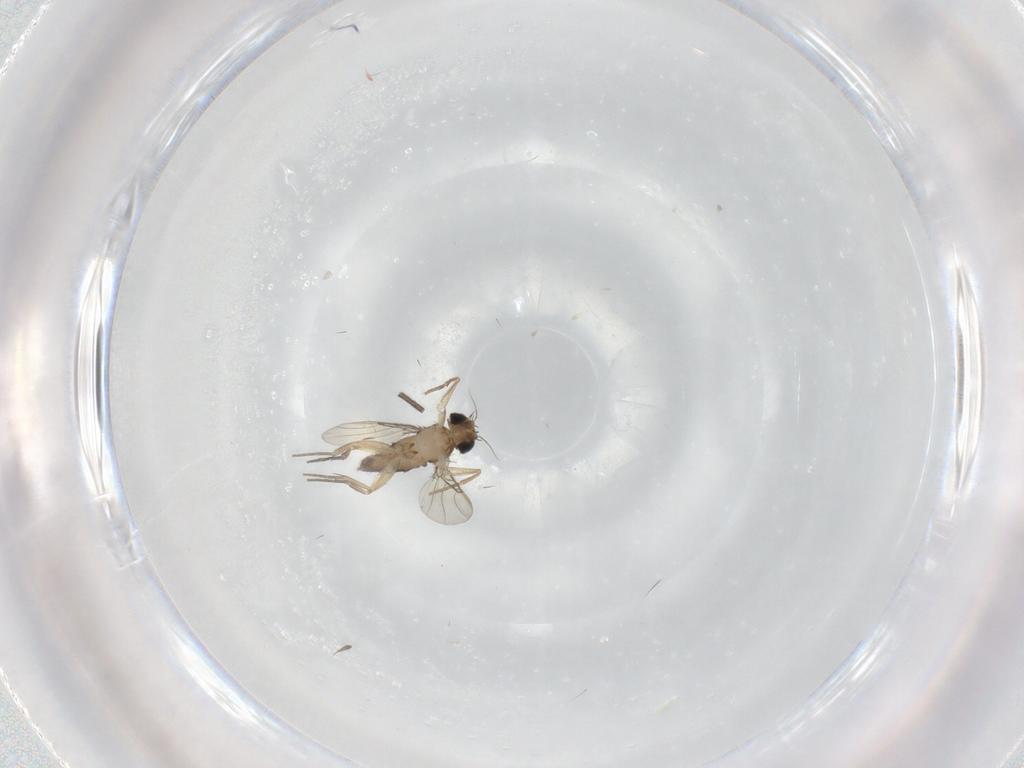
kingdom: Animalia
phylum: Arthropoda
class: Insecta
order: Diptera
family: Phoridae
